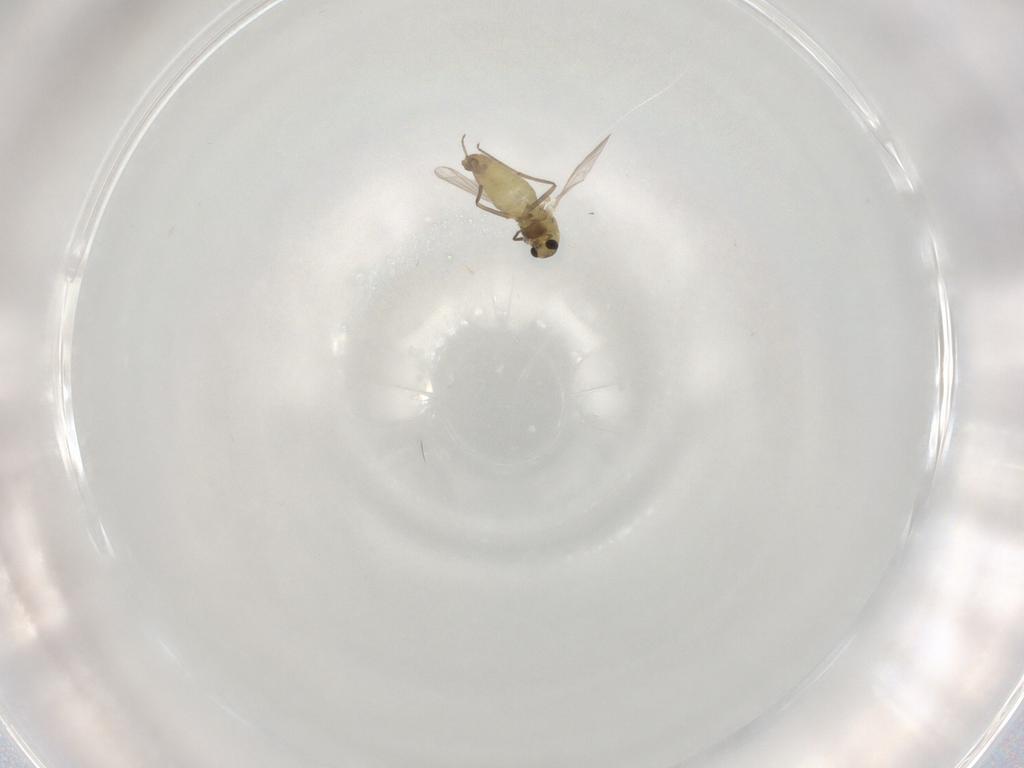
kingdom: Animalia
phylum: Arthropoda
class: Insecta
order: Diptera
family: Chironomidae
